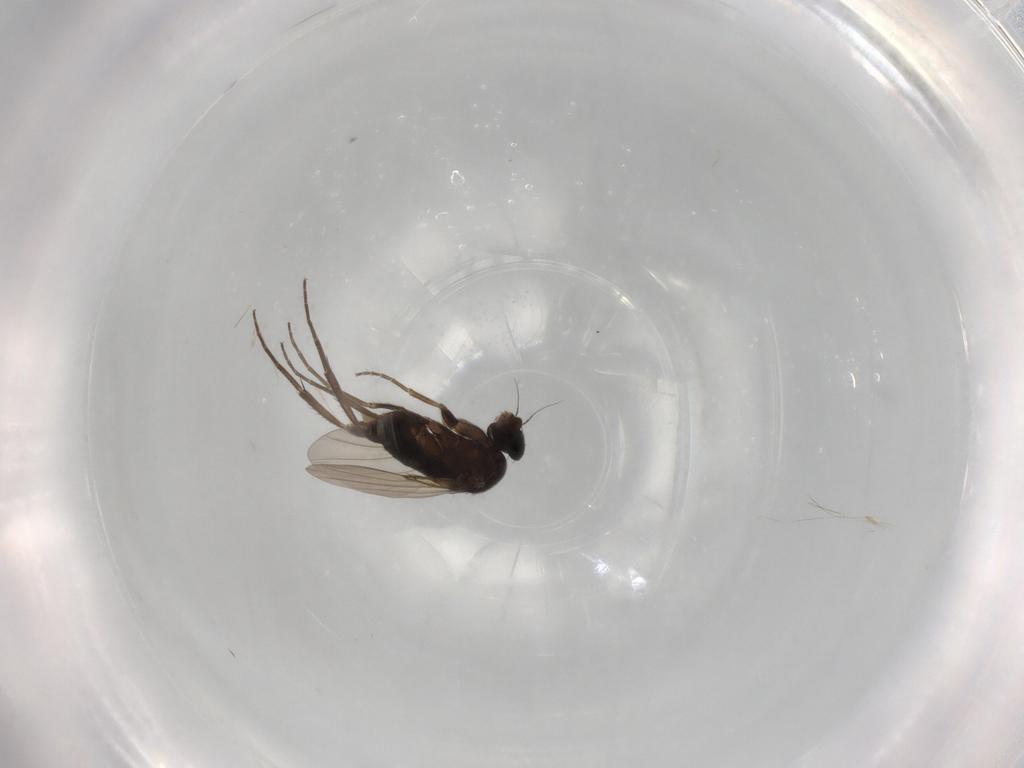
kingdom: Animalia
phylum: Arthropoda
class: Insecta
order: Diptera
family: Phoridae
